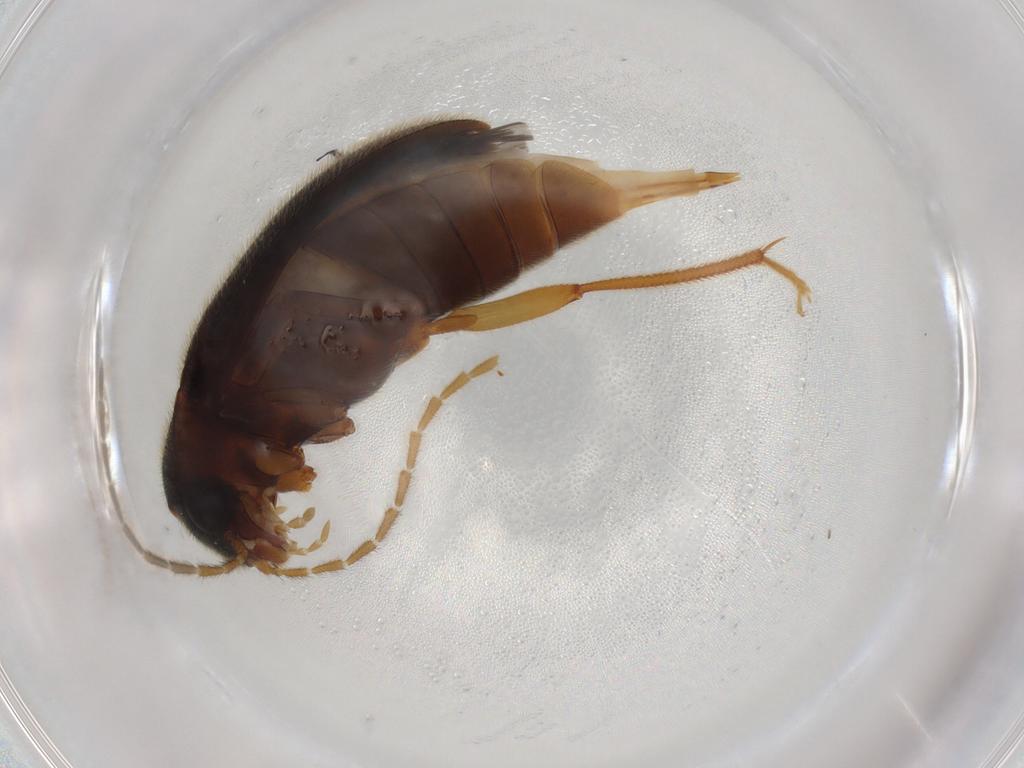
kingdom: Animalia
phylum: Arthropoda
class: Insecta
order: Coleoptera
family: Ptilodactylidae
